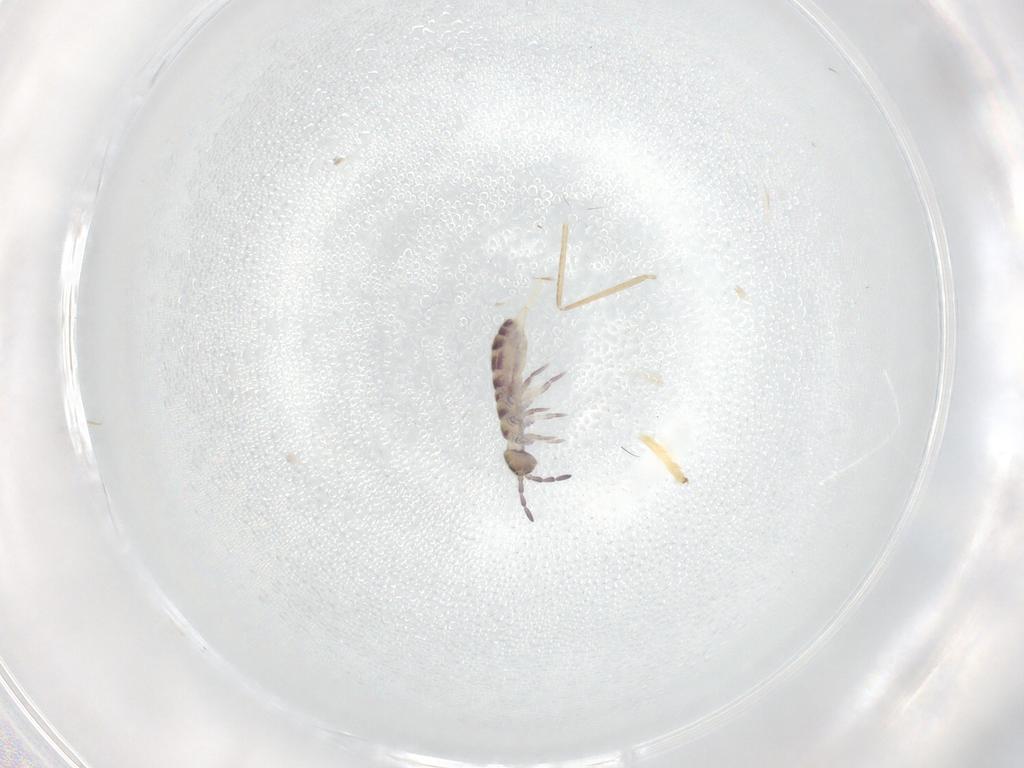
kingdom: Animalia
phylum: Arthropoda
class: Collembola
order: Entomobryomorpha
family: Isotomidae
